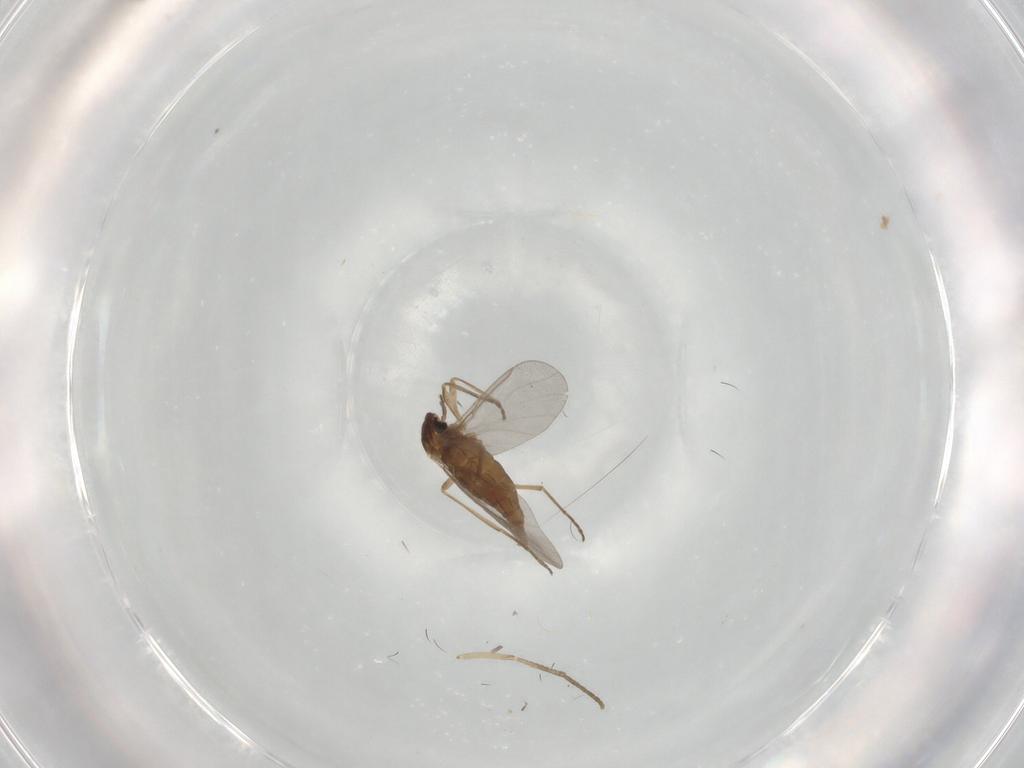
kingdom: Animalia
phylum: Arthropoda
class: Insecta
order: Diptera
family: Cecidomyiidae
